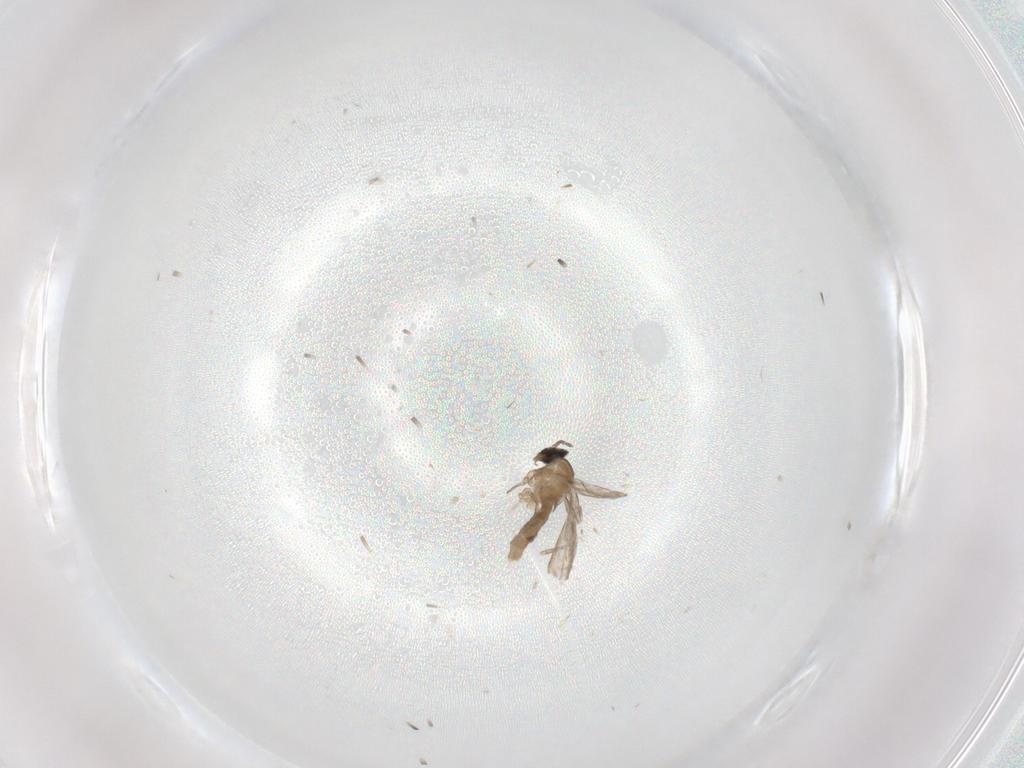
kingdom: Animalia
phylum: Arthropoda
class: Insecta
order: Diptera
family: Cecidomyiidae
